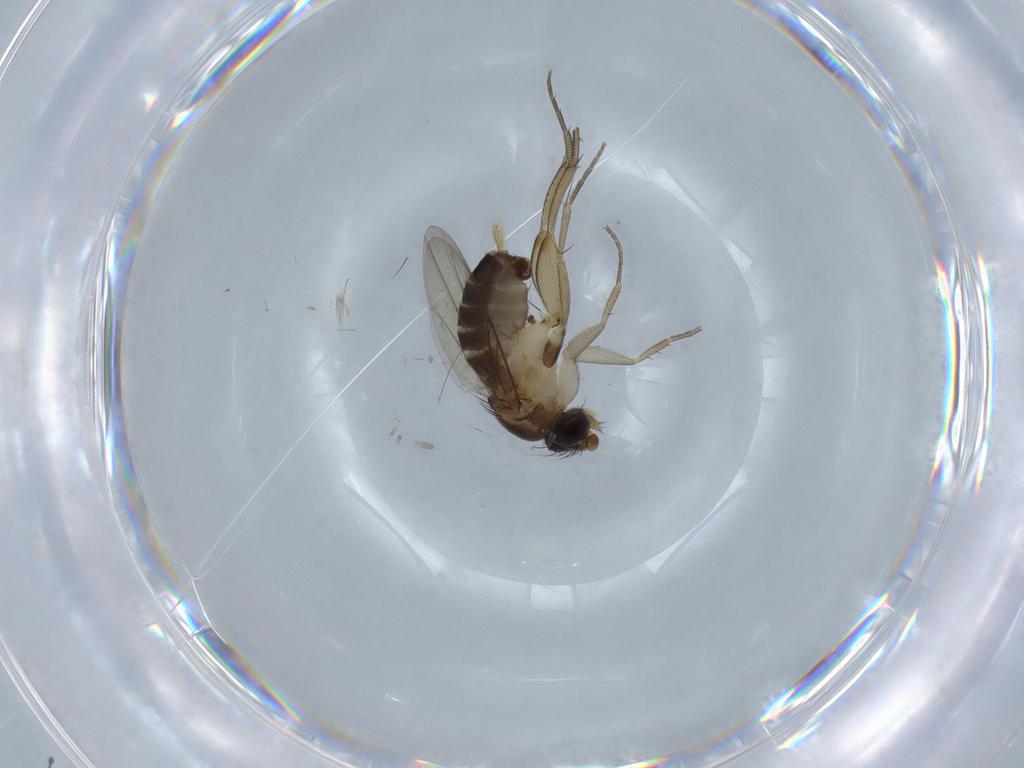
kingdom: Animalia
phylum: Arthropoda
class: Insecta
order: Diptera
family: Phoridae
